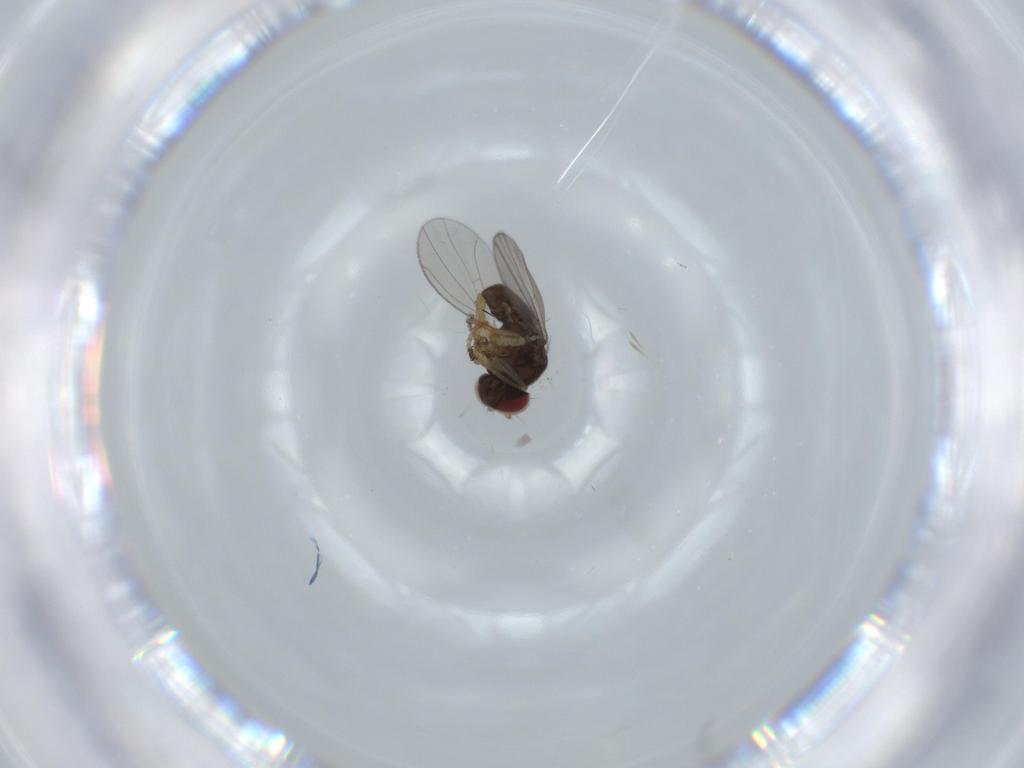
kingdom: Animalia
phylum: Arthropoda
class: Insecta
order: Diptera
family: Ephydridae
